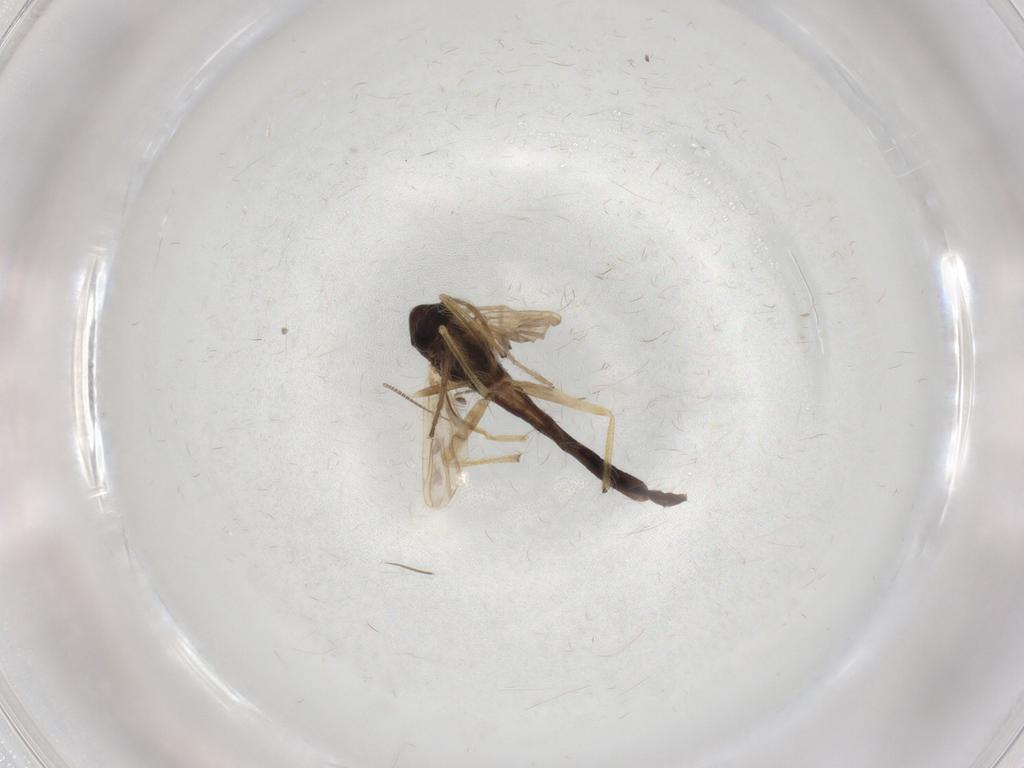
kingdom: Animalia
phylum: Arthropoda
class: Insecta
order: Diptera
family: Chironomidae
